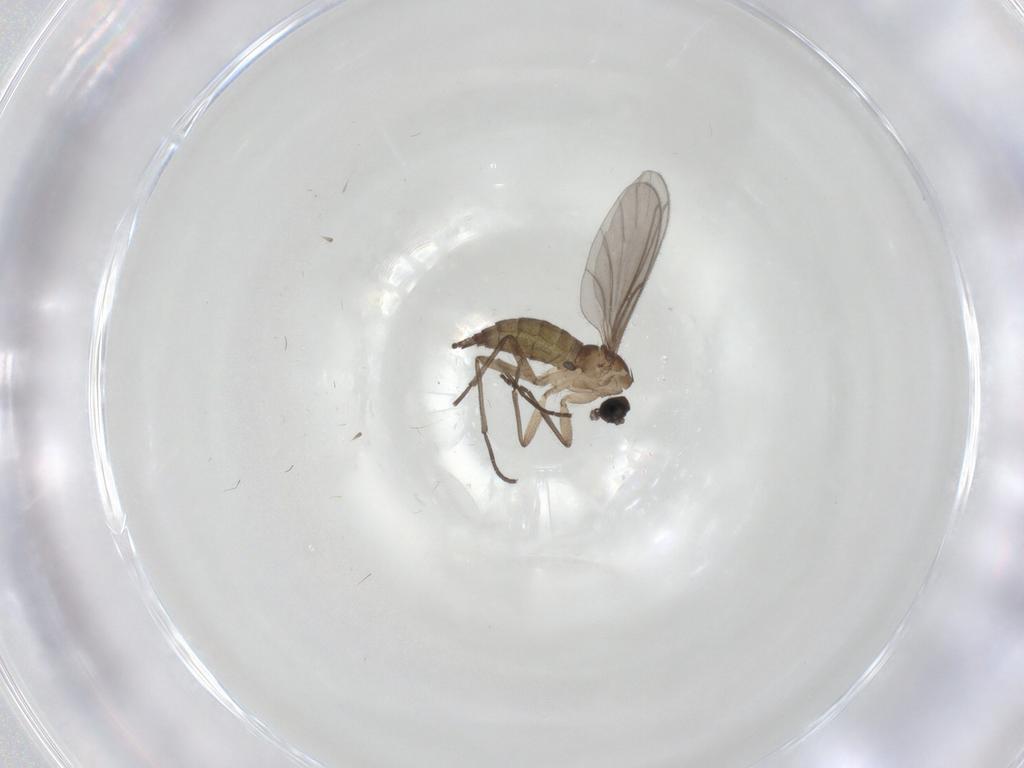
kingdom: Animalia
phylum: Arthropoda
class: Insecta
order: Diptera
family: Sciaridae
